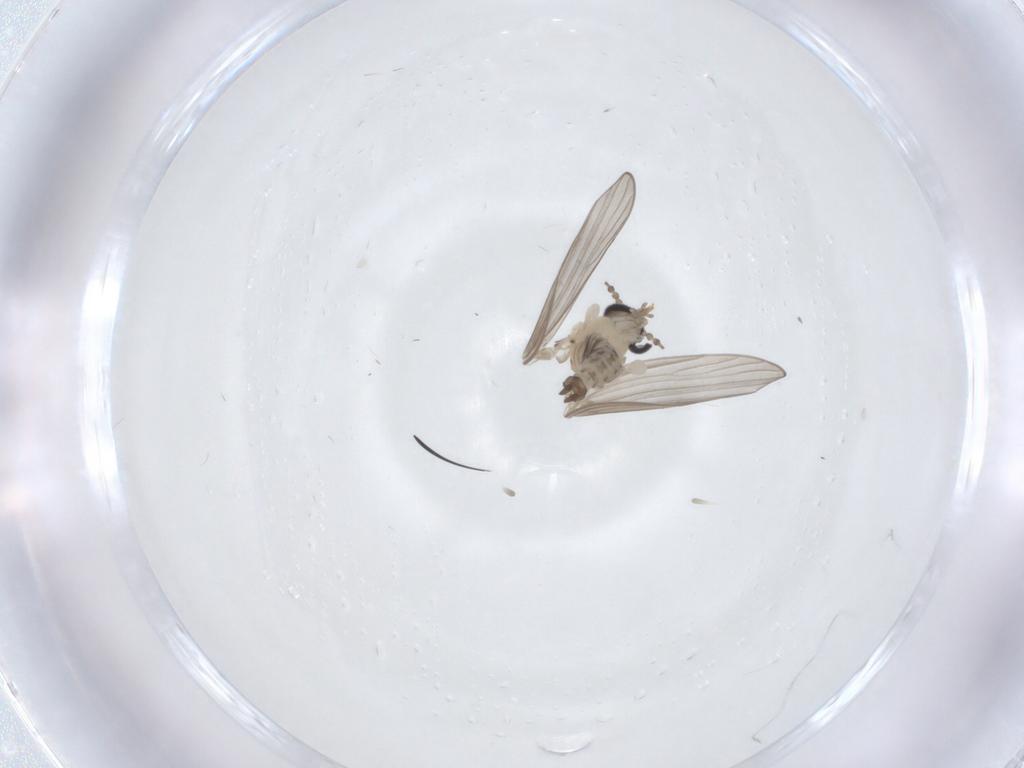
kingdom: Animalia
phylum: Arthropoda
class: Insecta
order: Diptera
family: Psychodidae
